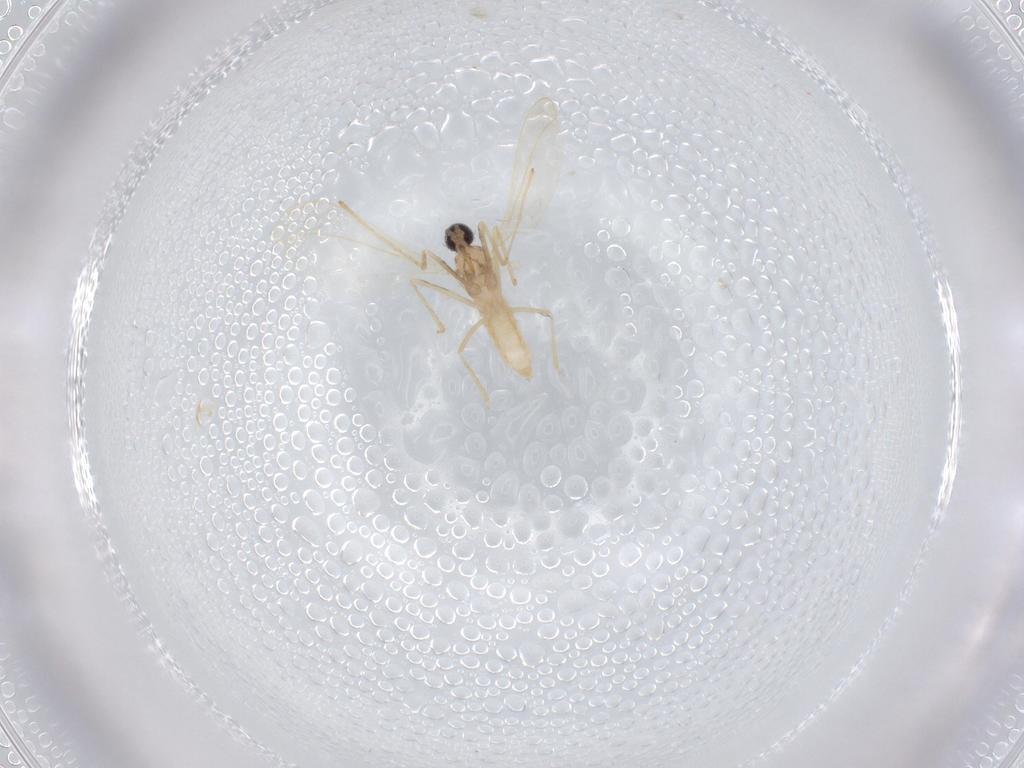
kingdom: Animalia
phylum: Arthropoda
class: Insecta
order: Diptera
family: Cecidomyiidae
